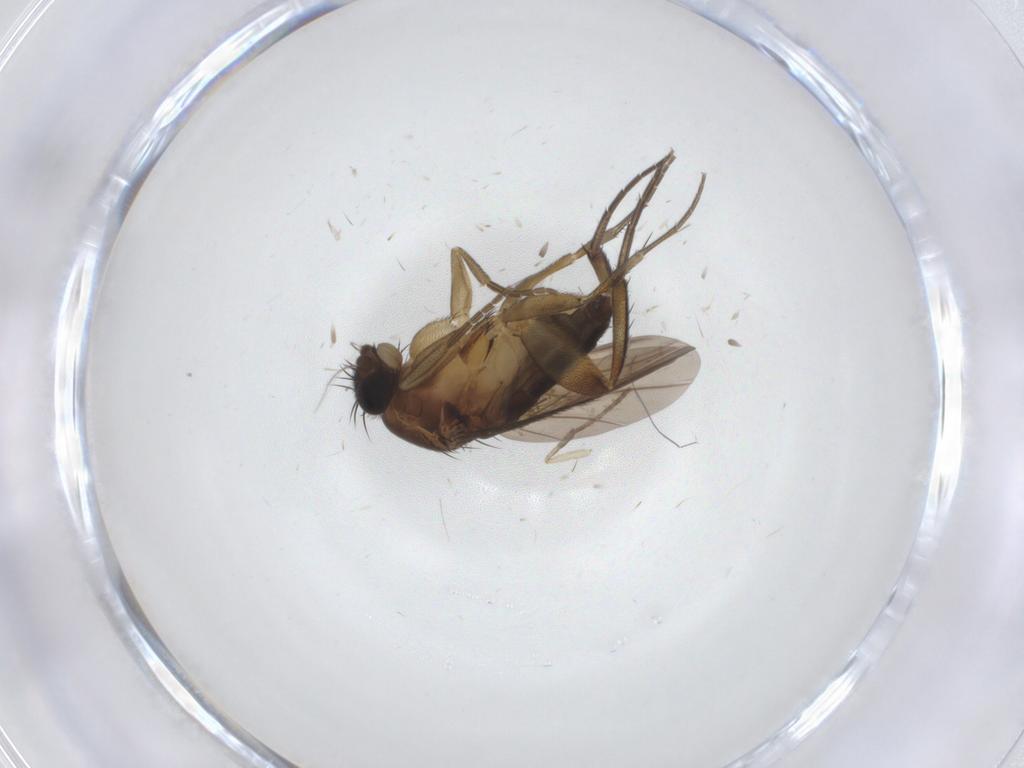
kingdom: Animalia
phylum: Arthropoda
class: Insecta
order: Diptera
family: Phoridae
